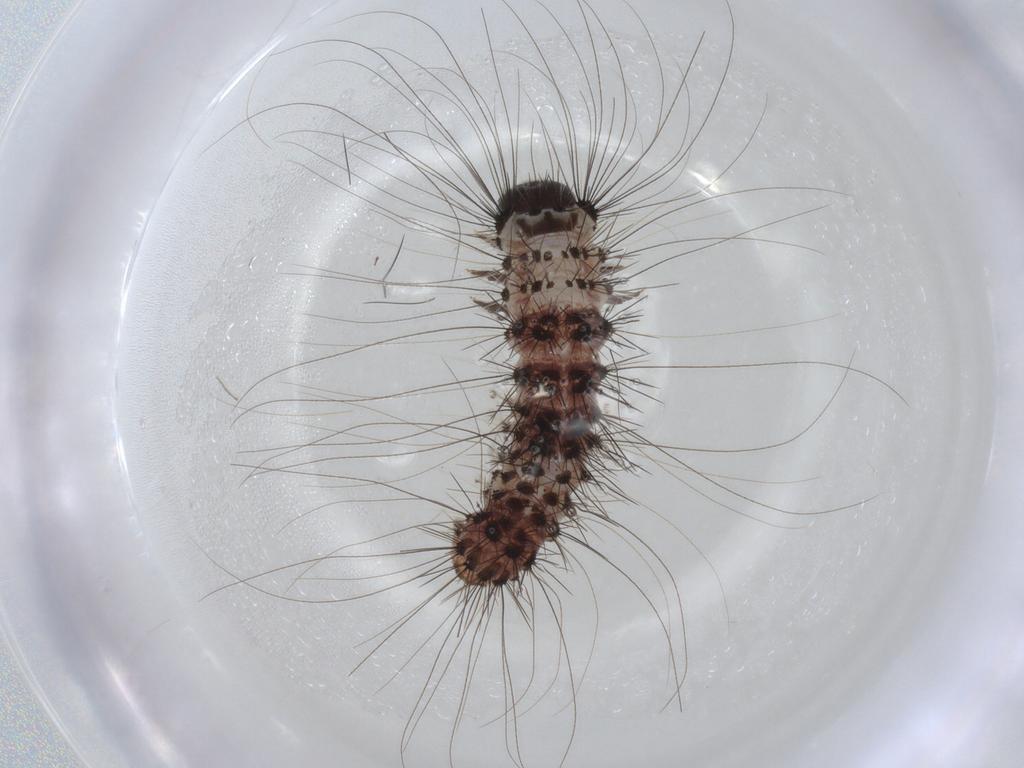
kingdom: Animalia
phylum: Arthropoda
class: Insecta
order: Lepidoptera
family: Erebidae
